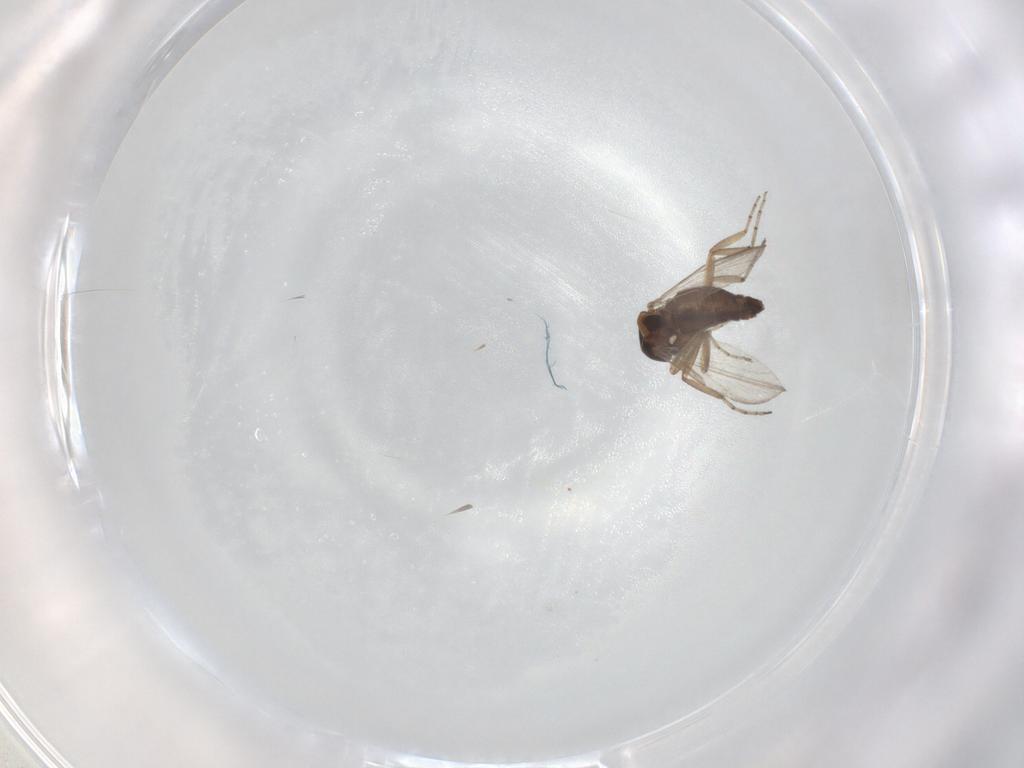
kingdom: Animalia
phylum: Arthropoda
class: Insecta
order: Diptera
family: Ceratopogonidae
